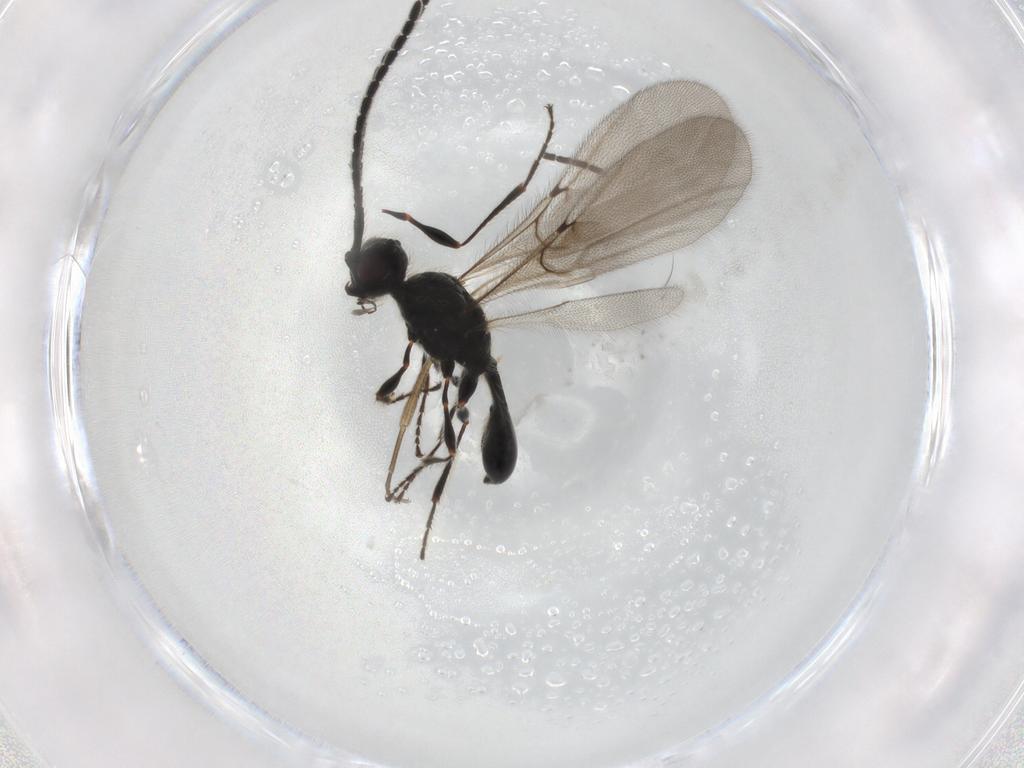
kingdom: Animalia
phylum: Arthropoda
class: Insecta
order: Hymenoptera
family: Diapriidae
